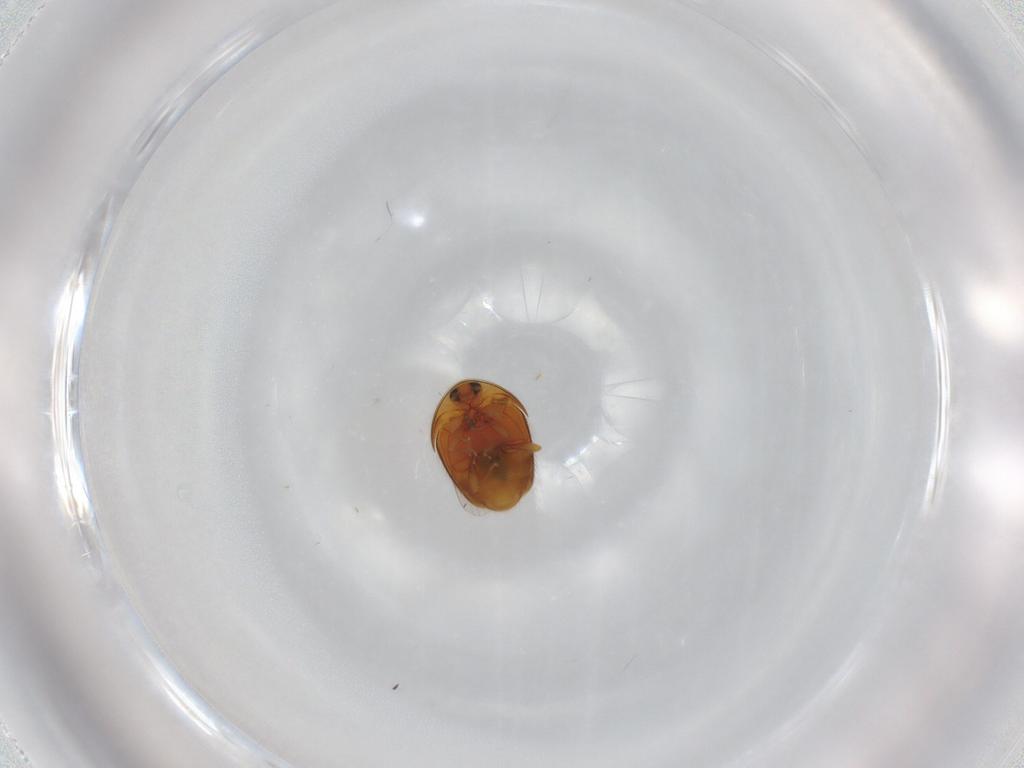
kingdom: Animalia
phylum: Arthropoda
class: Insecta
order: Coleoptera
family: Corylophidae
